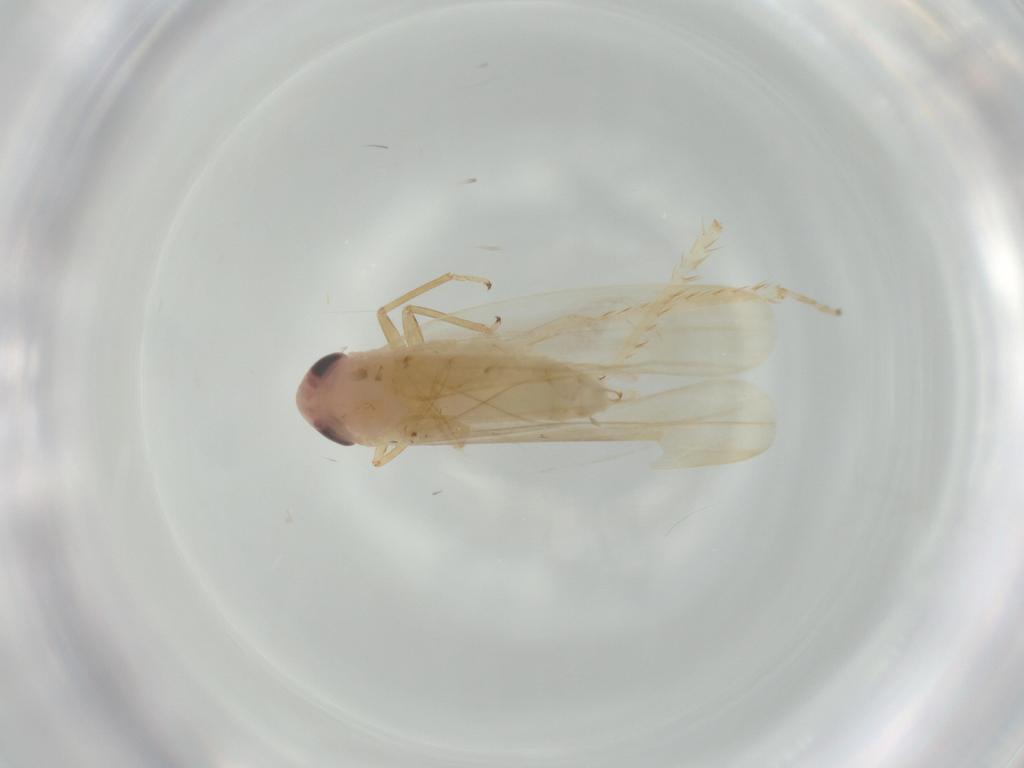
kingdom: Animalia
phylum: Arthropoda
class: Insecta
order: Hemiptera
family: Cicadellidae
